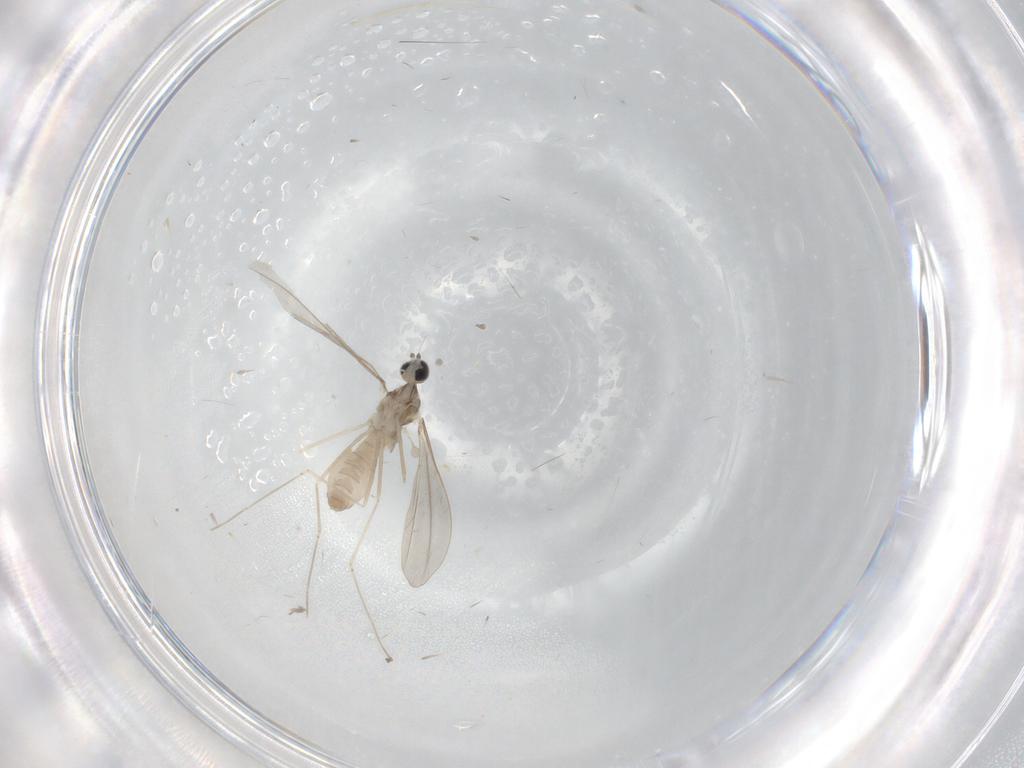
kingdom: Animalia
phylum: Arthropoda
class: Insecta
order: Diptera
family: Cecidomyiidae
